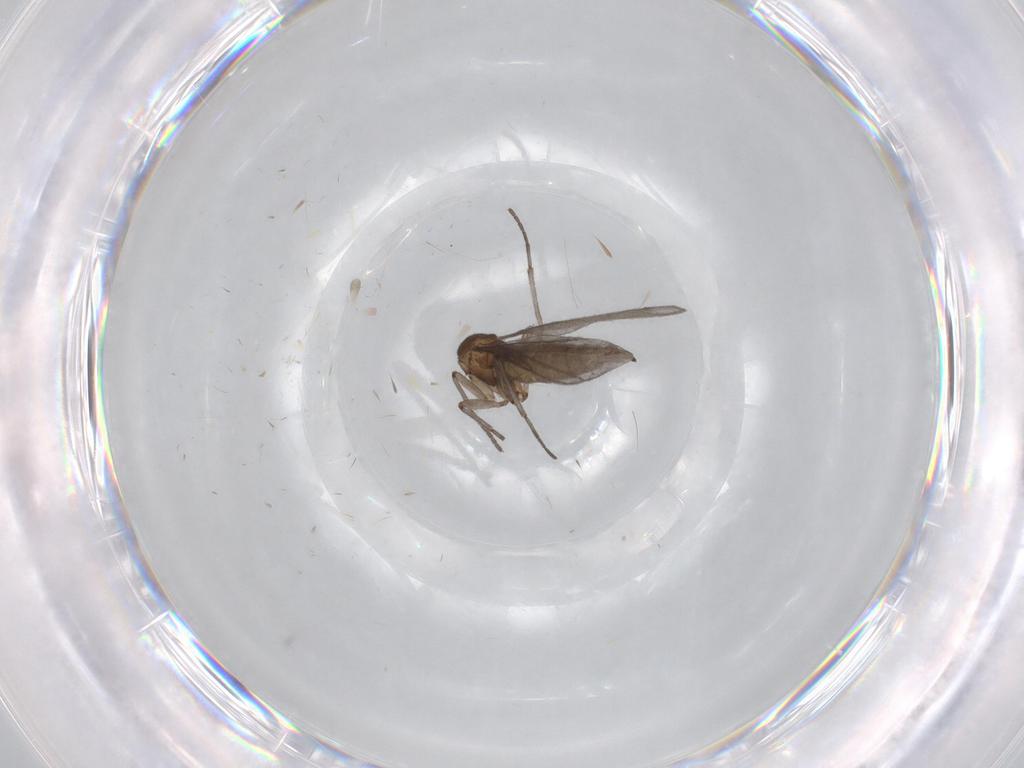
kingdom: Animalia
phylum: Arthropoda
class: Insecta
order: Diptera
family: Sciaridae
